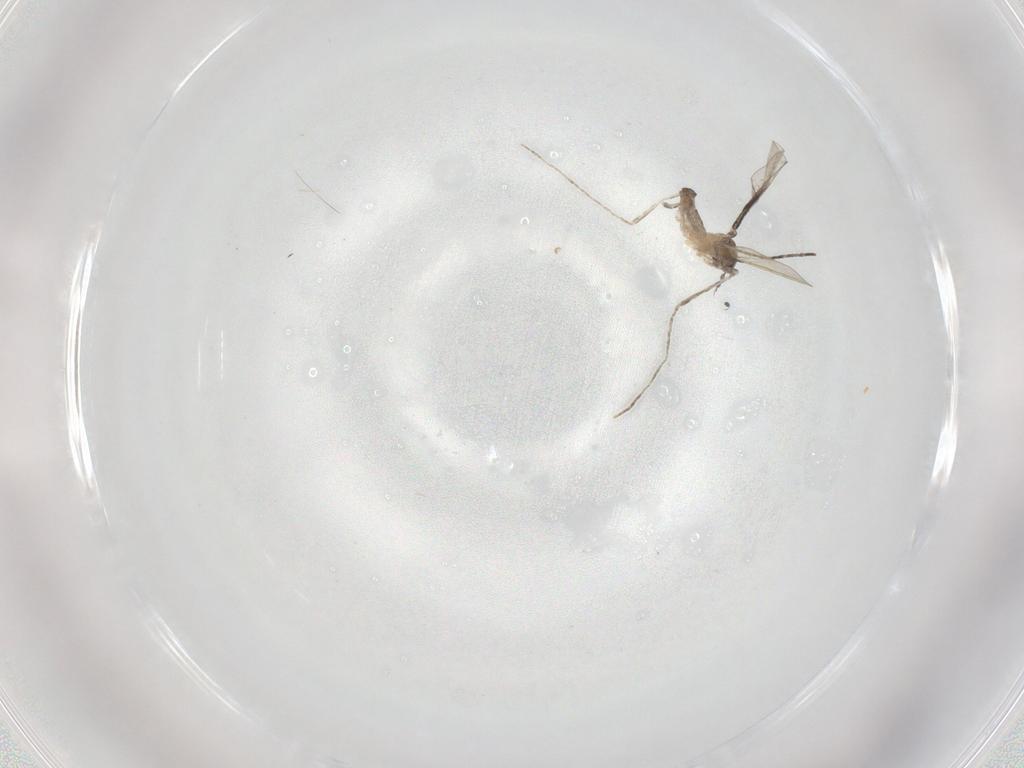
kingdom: Animalia
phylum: Arthropoda
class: Insecta
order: Diptera
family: Cecidomyiidae
